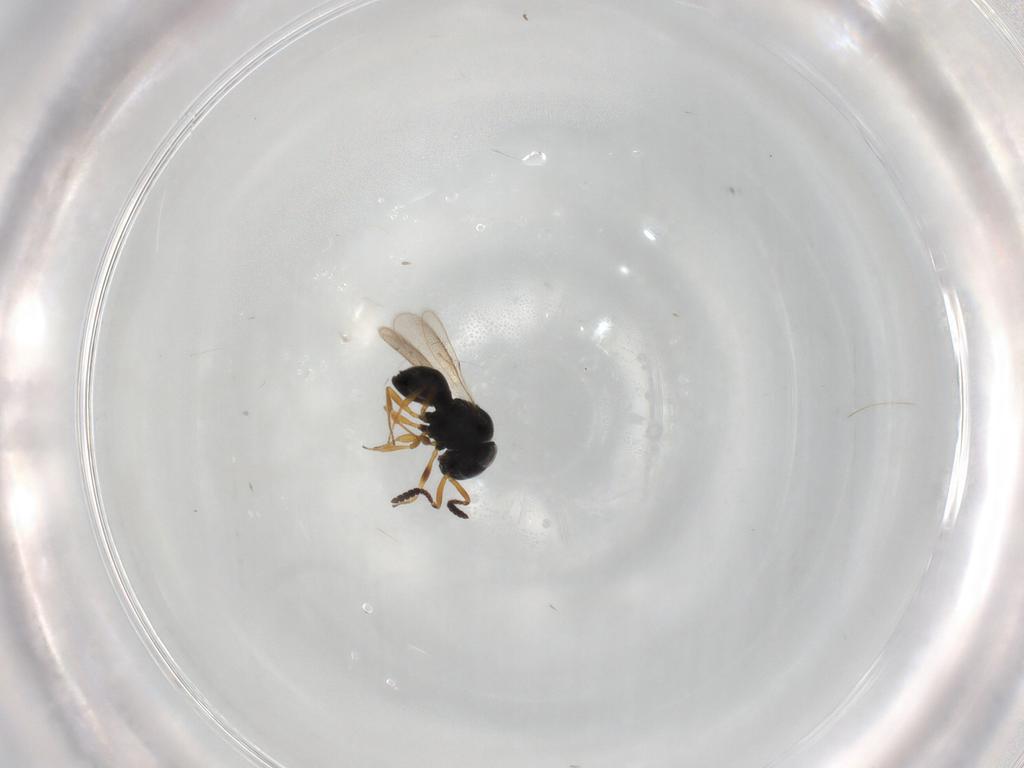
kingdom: Animalia
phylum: Arthropoda
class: Insecta
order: Hymenoptera
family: Scelionidae
